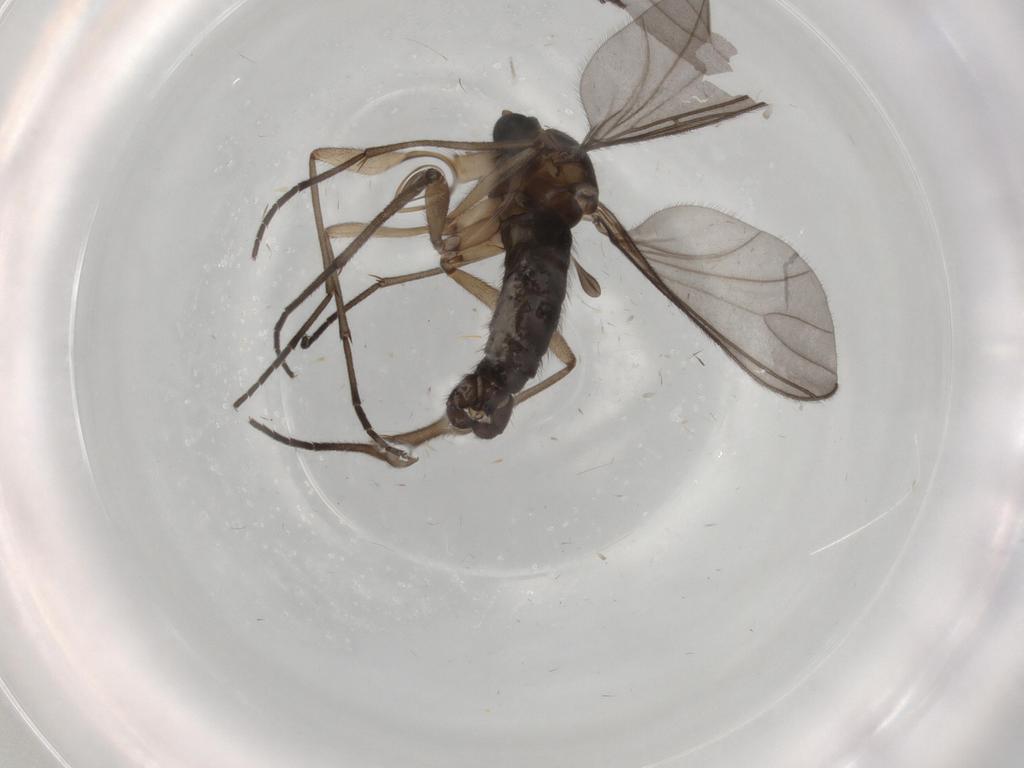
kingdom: Animalia
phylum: Arthropoda
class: Insecta
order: Diptera
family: Sciaridae
